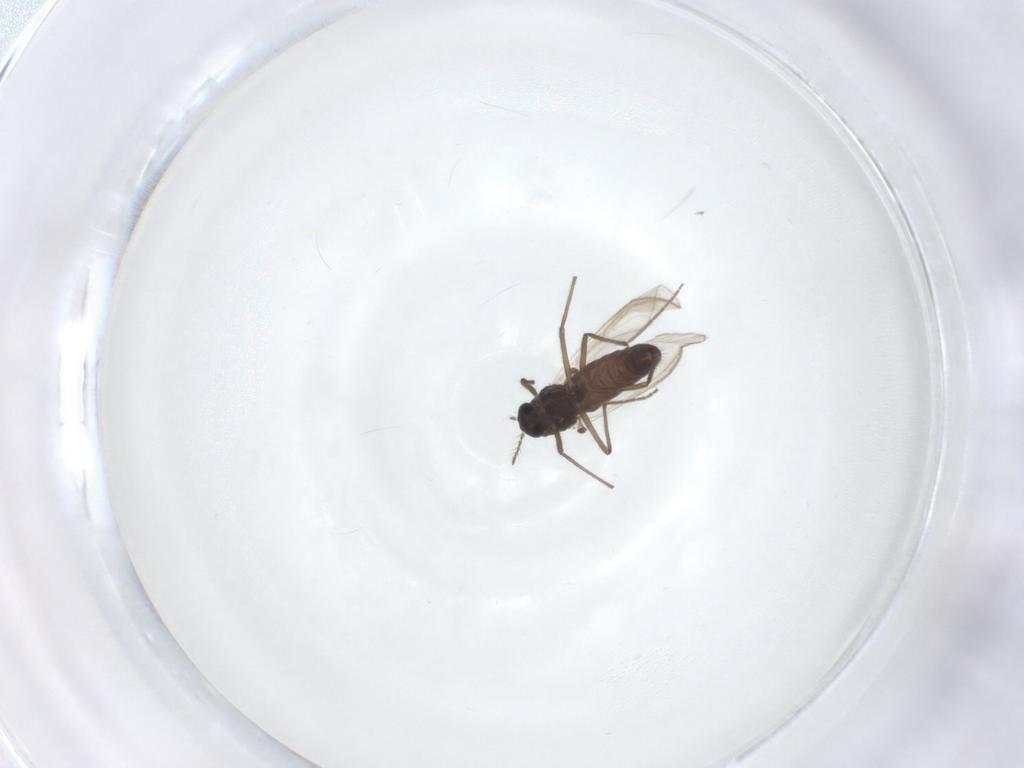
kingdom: Animalia
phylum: Arthropoda
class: Insecta
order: Diptera
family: Chironomidae
